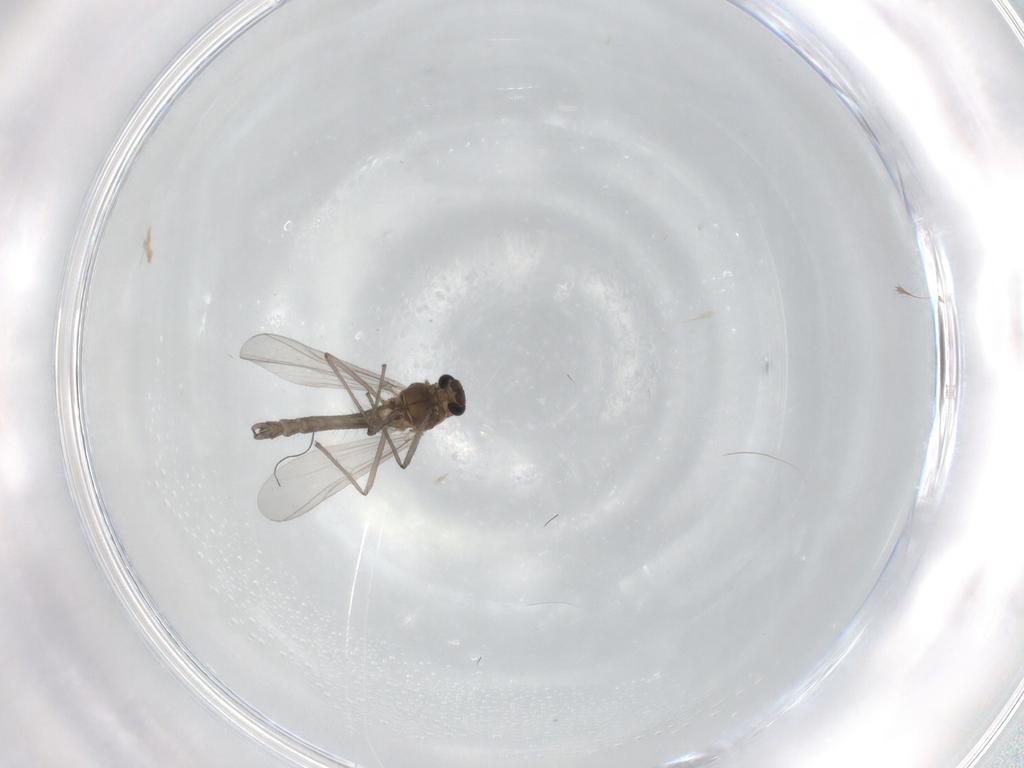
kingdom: Animalia
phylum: Arthropoda
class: Insecta
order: Diptera
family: Chironomidae
